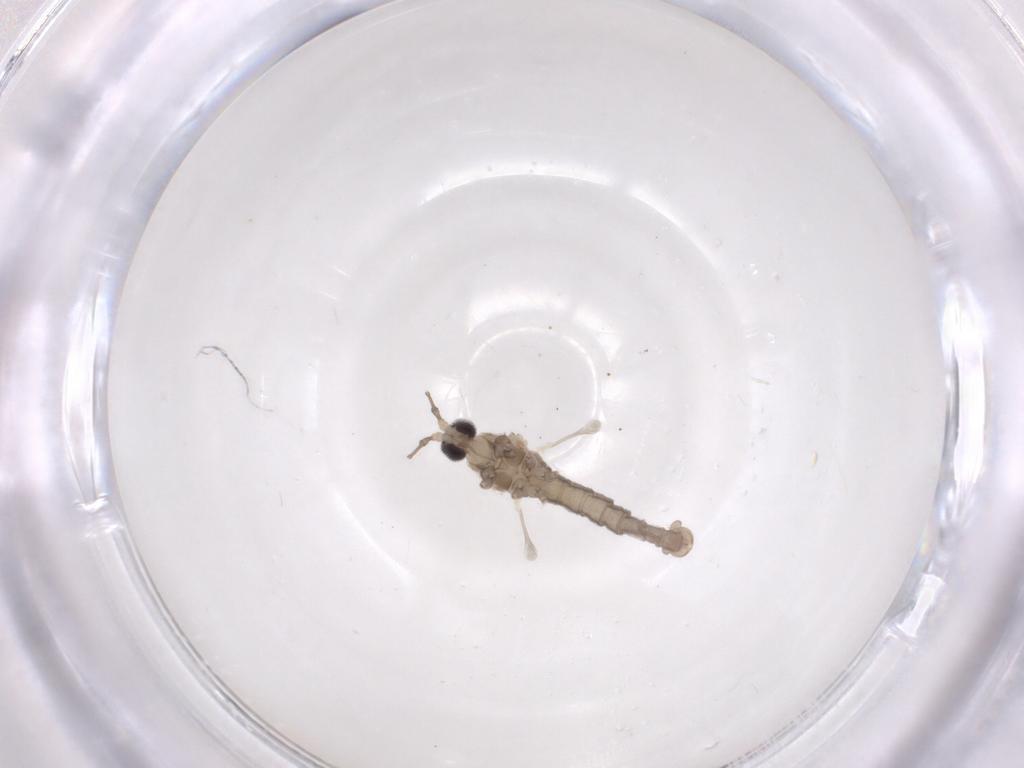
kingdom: Animalia
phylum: Arthropoda
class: Insecta
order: Diptera
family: Cecidomyiidae
